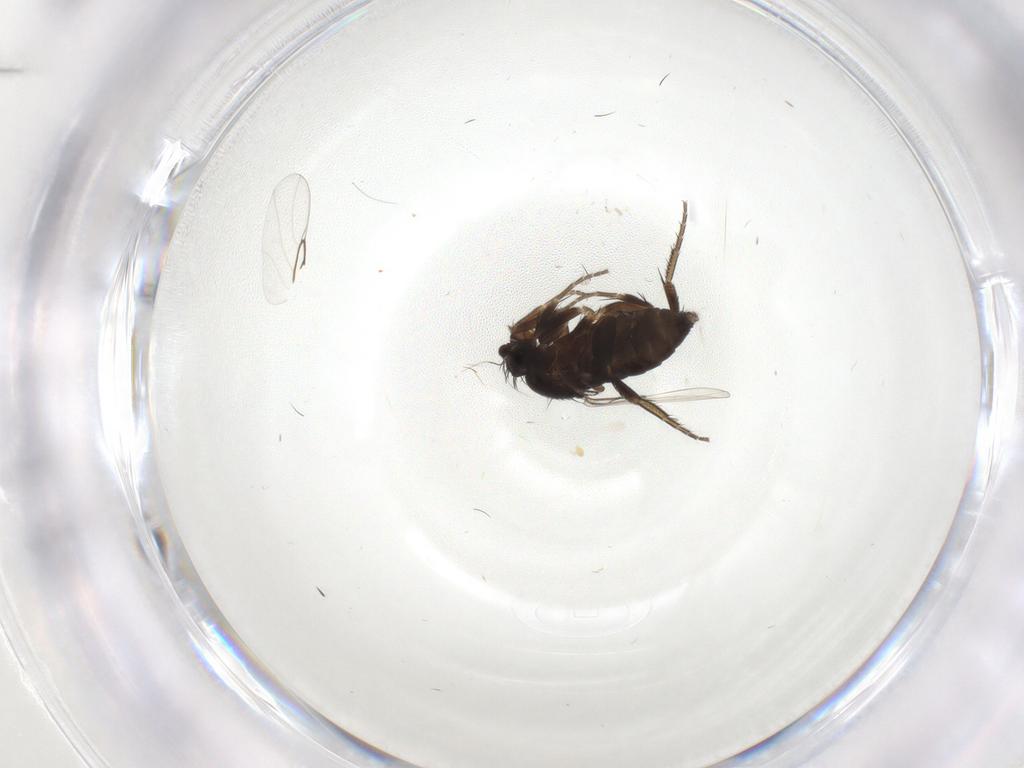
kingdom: Animalia
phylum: Arthropoda
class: Insecta
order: Diptera
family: Phoridae
